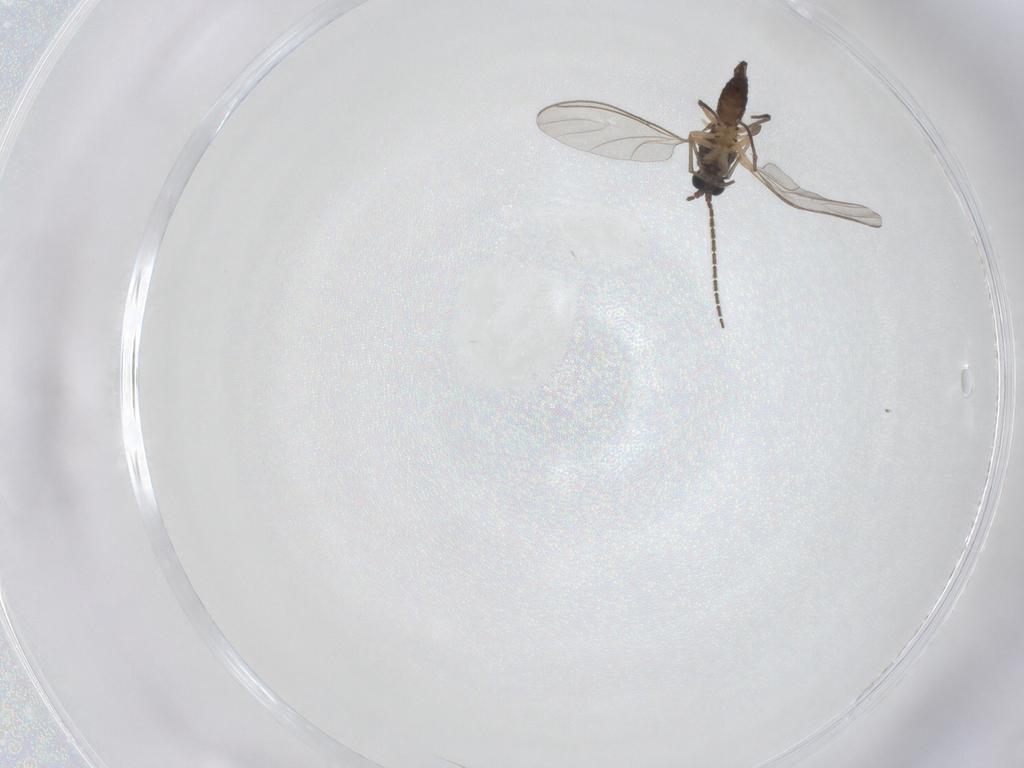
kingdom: Animalia
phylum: Arthropoda
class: Insecta
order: Diptera
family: Sciaridae
